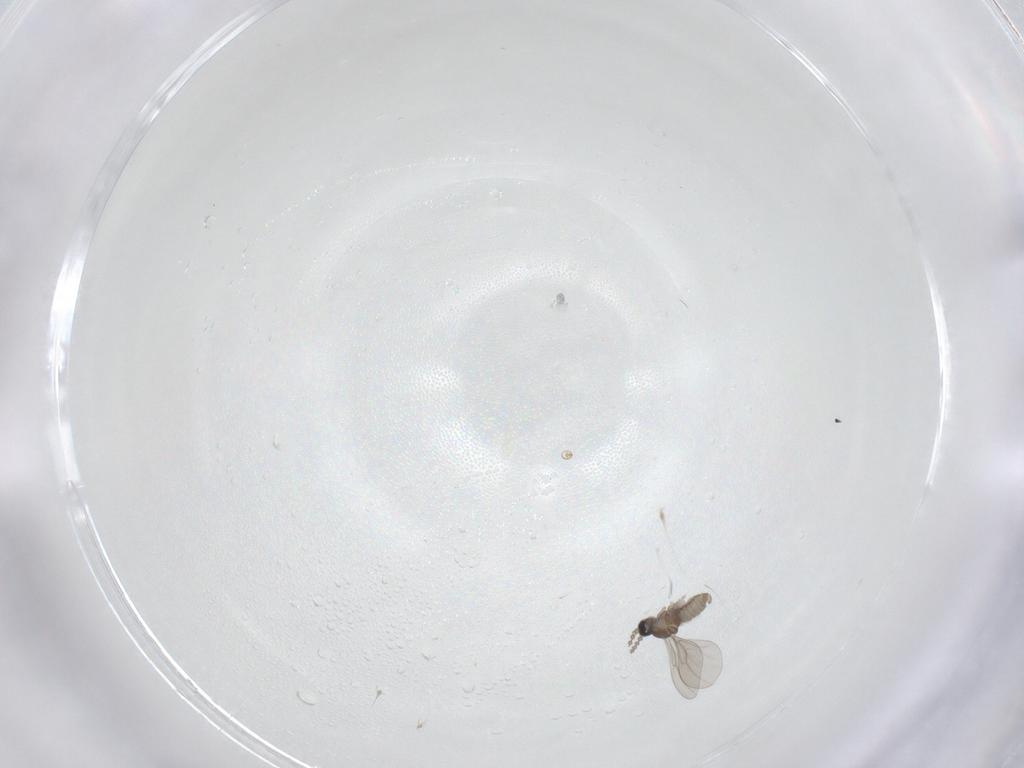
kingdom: Animalia
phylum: Arthropoda
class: Insecta
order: Diptera
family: Cecidomyiidae
